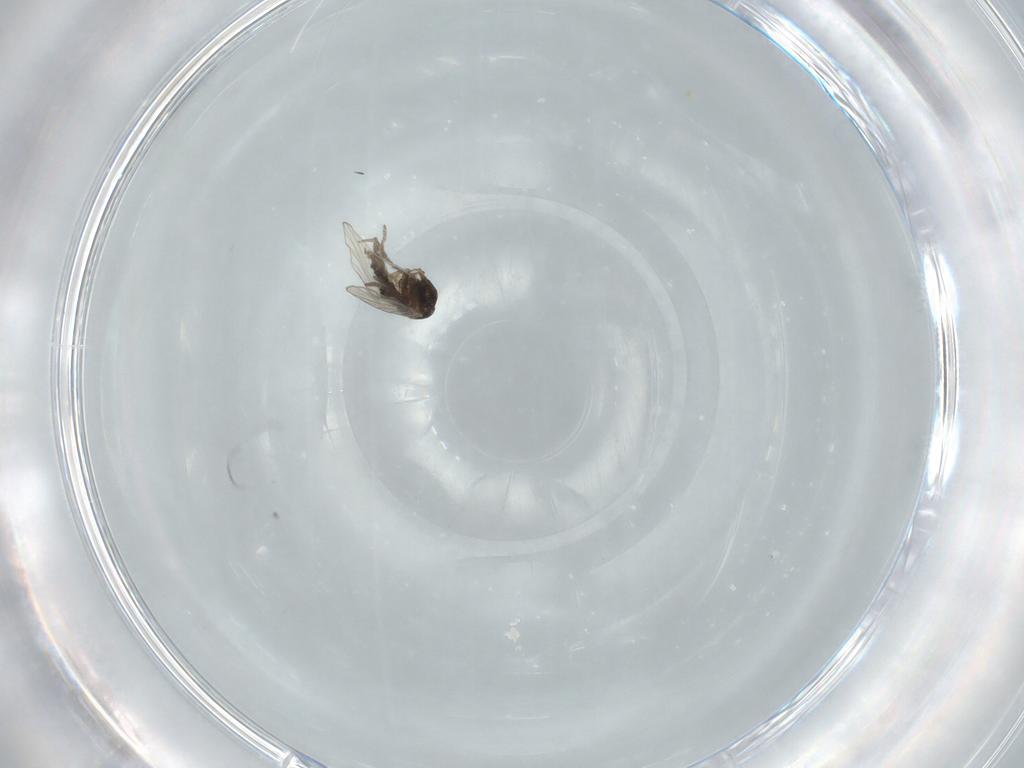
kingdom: Animalia
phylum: Arthropoda
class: Insecta
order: Diptera
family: Psychodidae
